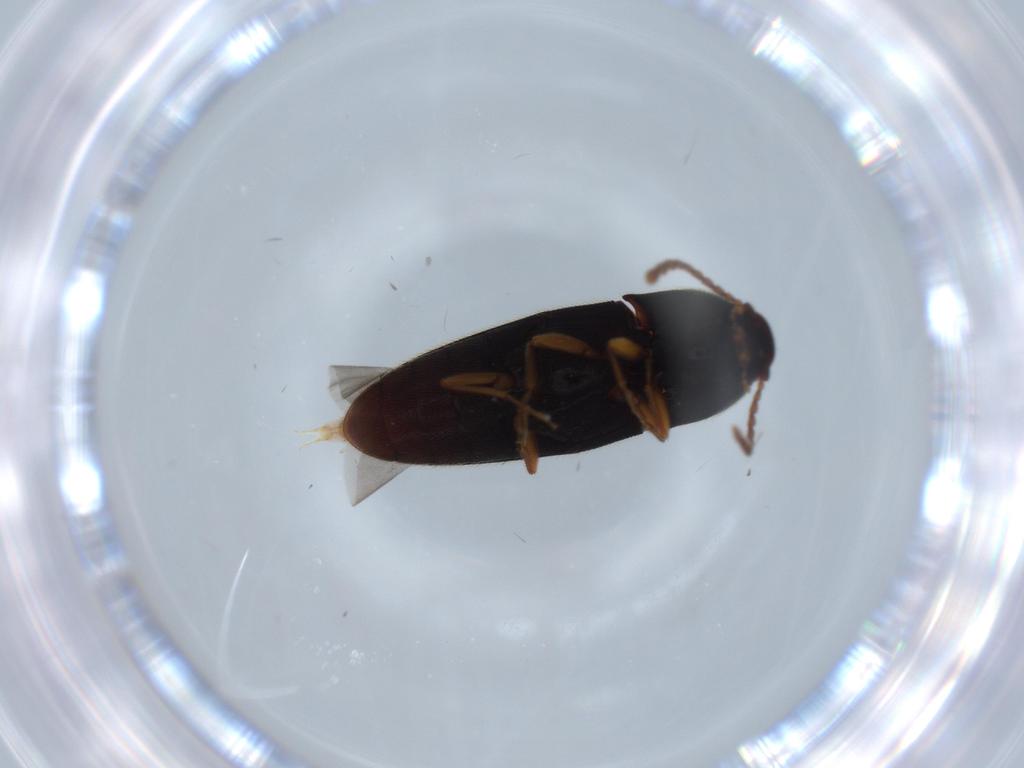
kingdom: Animalia
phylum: Arthropoda
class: Insecta
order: Coleoptera
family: Elateridae
